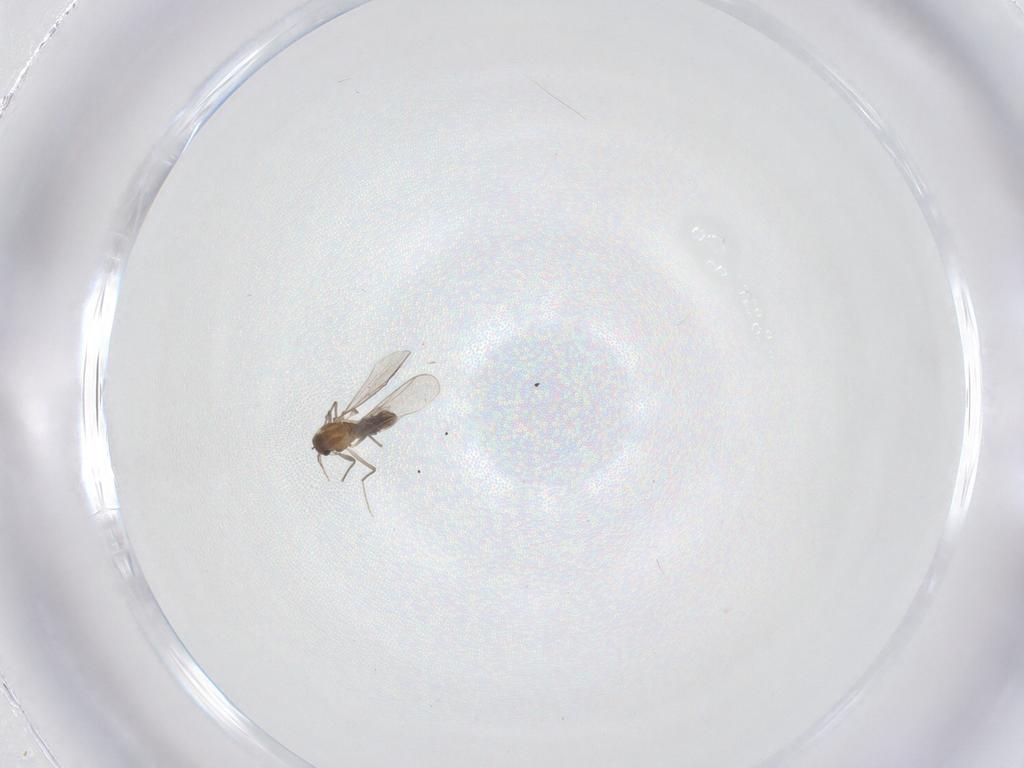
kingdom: Animalia
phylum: Arthropoda
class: Insecta
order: Diptera
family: Chironomidae
